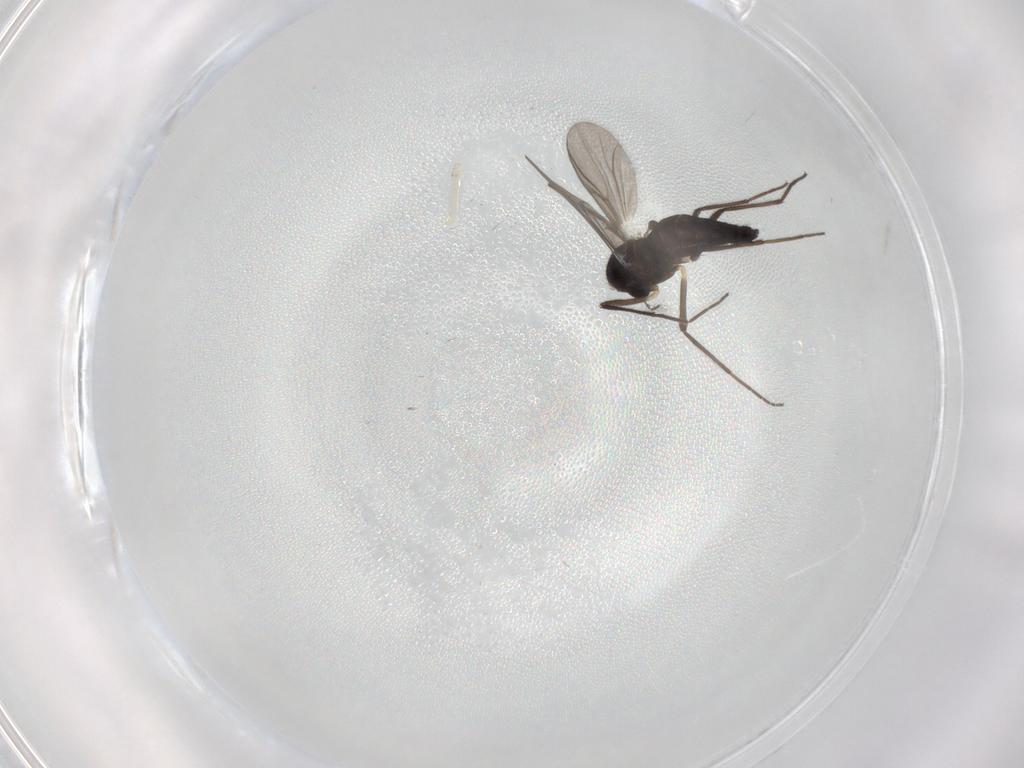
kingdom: Animalia
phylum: Arthropoda
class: Insecta
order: Diptera
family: Chironomidae
